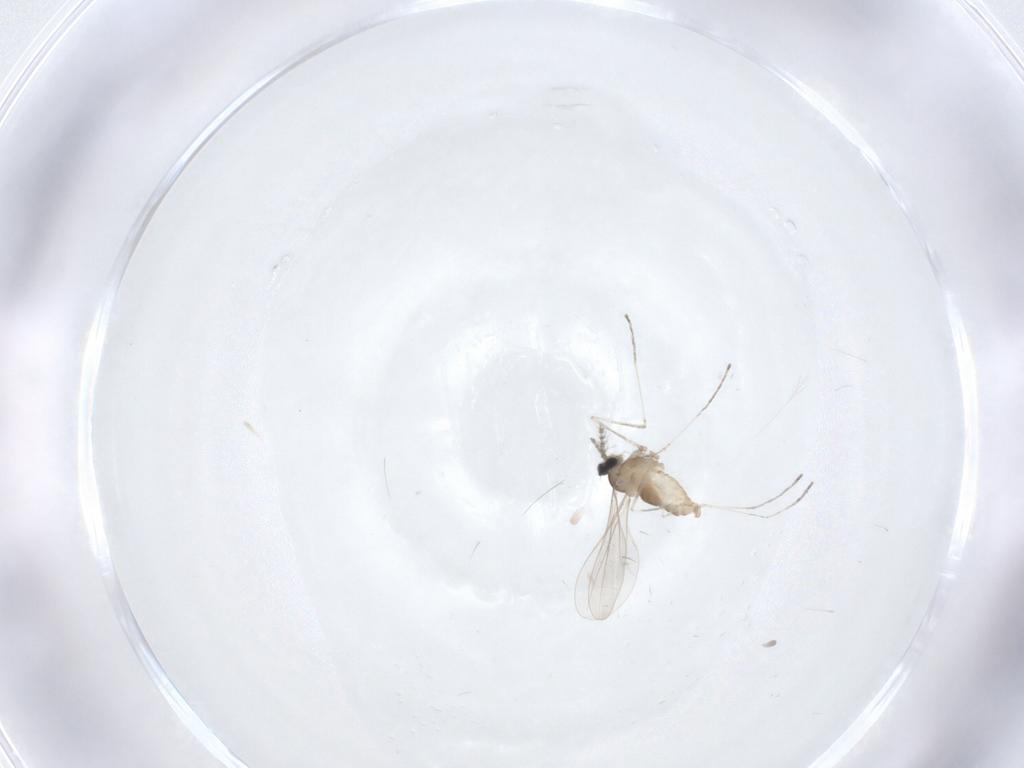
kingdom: Animalia
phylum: Arthropoda
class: Insecta
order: Diptera
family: Cecidomyiidae
